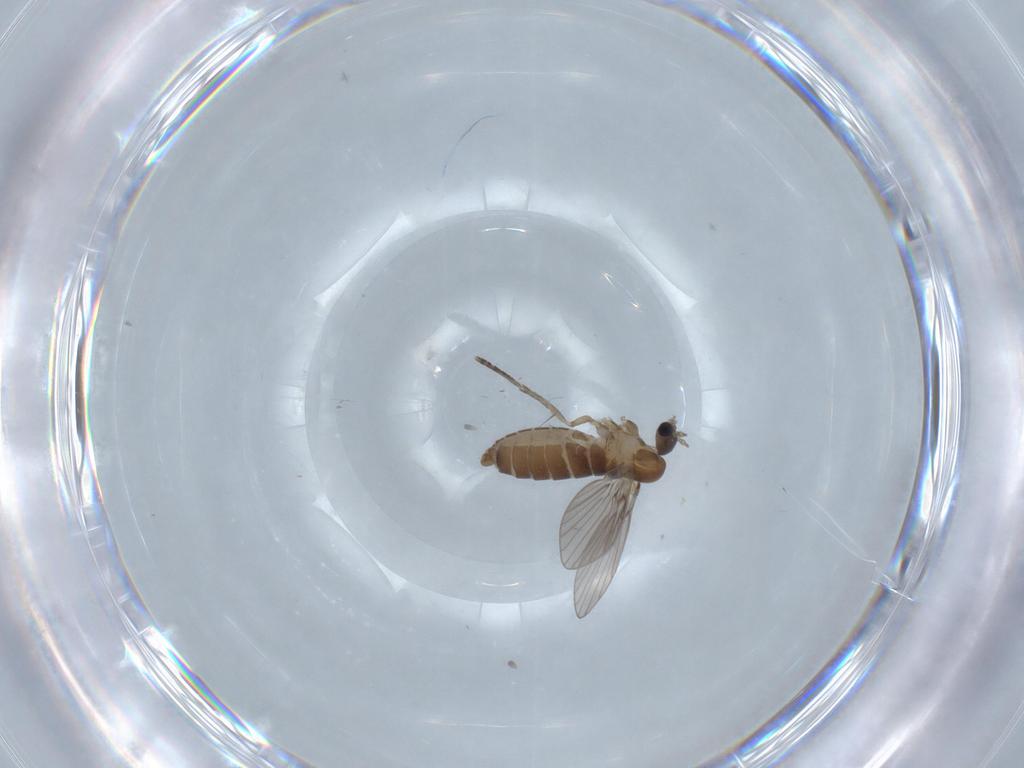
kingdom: Animalia
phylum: Arthropoda
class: Insecta
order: Diptera
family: Psychodidae
